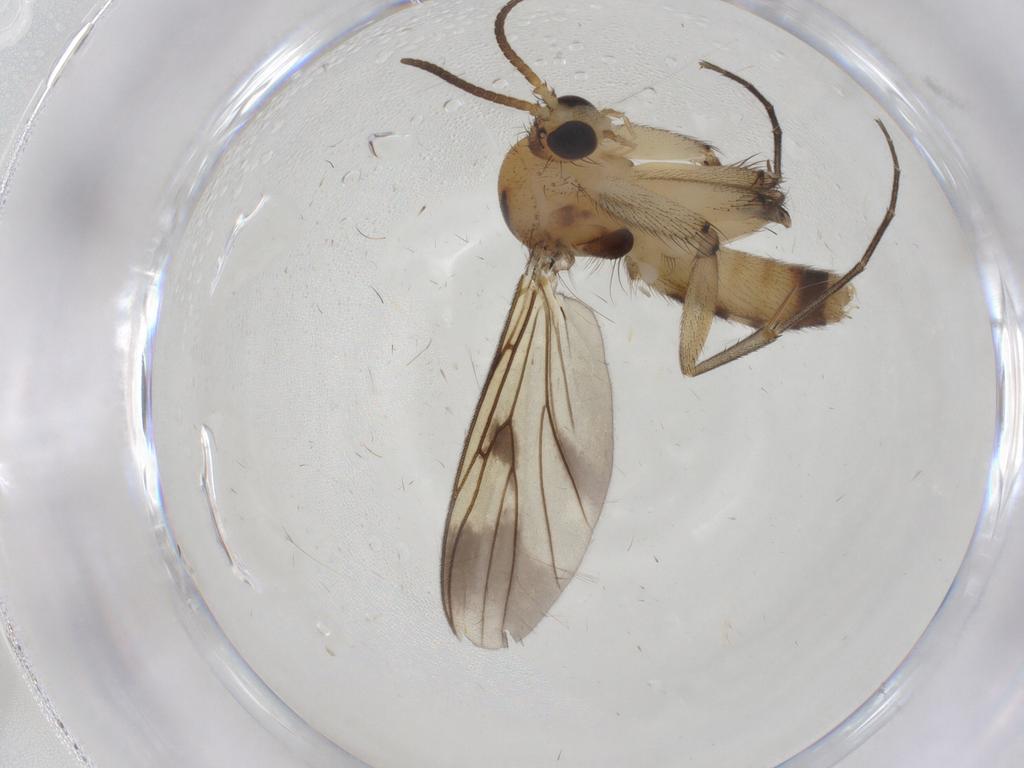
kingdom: Animalia
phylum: Arthropoda
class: Insecta
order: Diptera
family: Mycetophilidae
